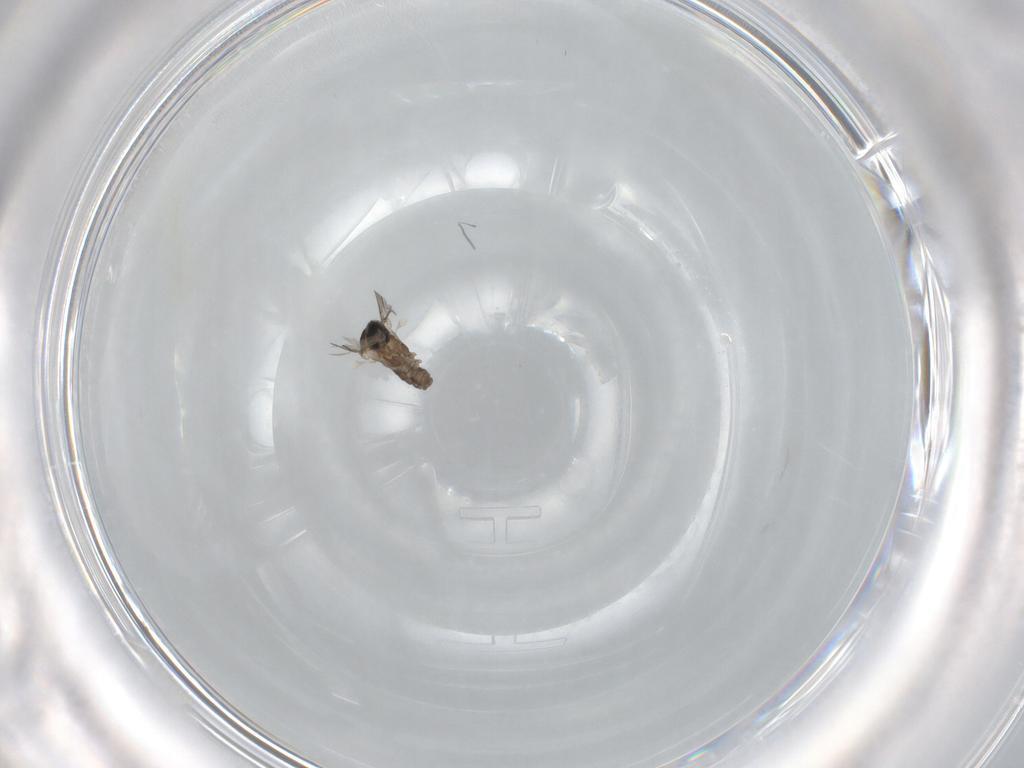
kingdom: Animalia
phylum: Arthropoda
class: Insecta
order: Diptera
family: Cecidomyiidae
